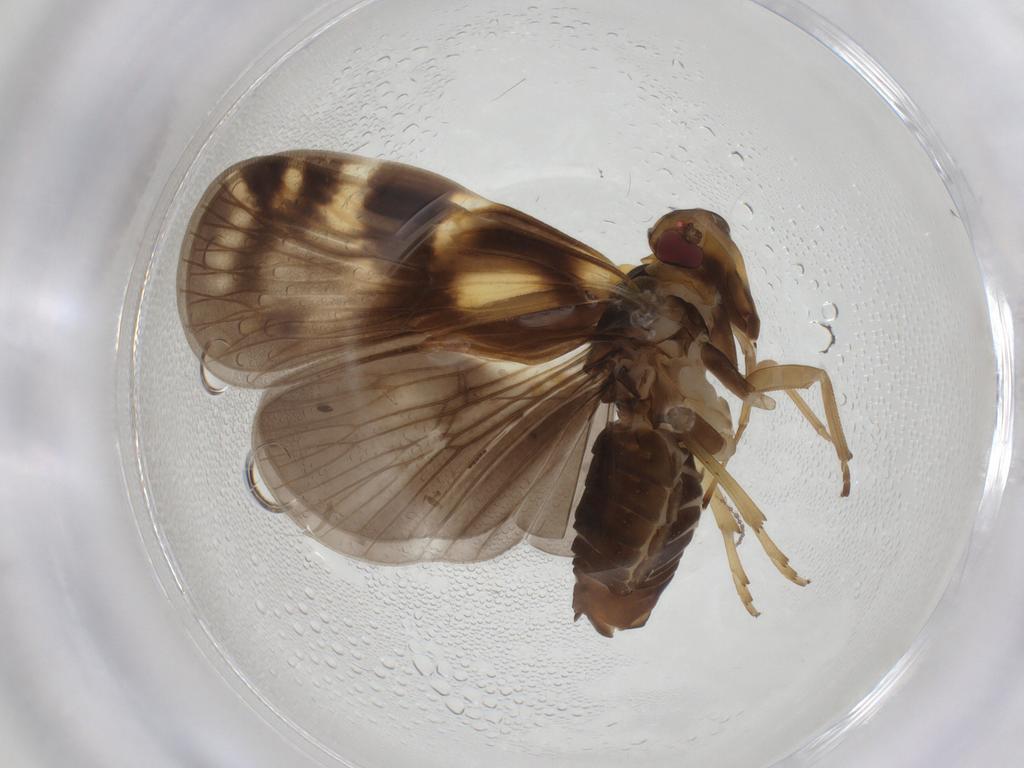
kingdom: Animalia
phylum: Arthropoda
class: Insecta
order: Hemiptera
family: Cixiidae
